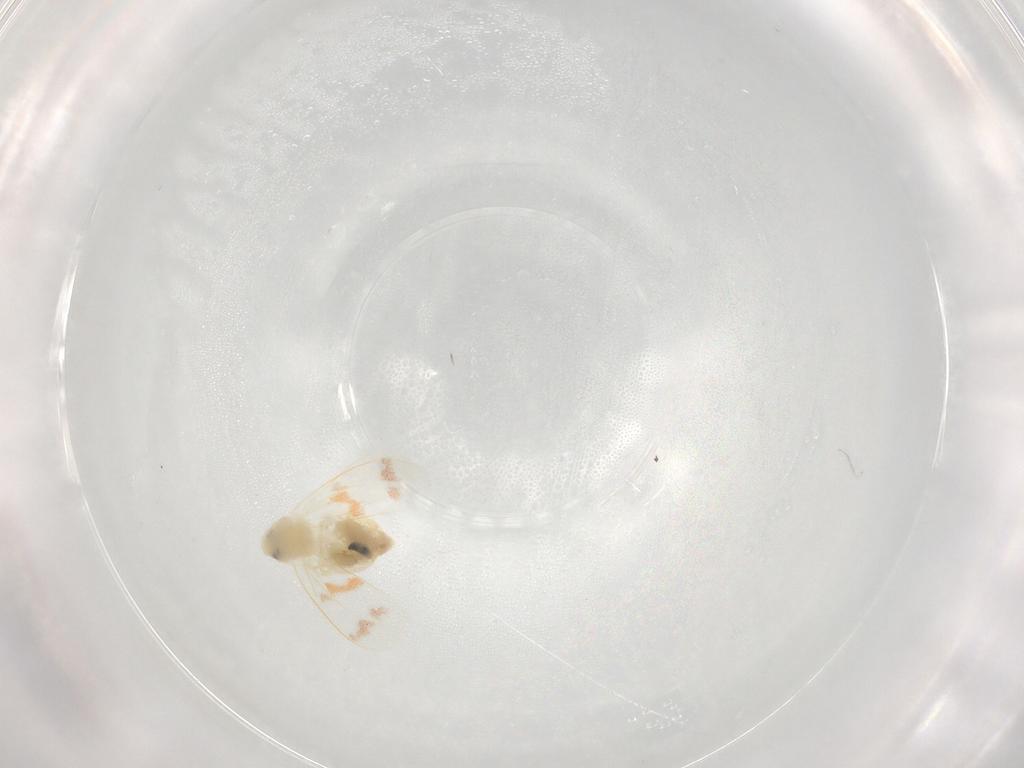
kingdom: Animalia
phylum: Arthropoda
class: Insecta
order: Hemiptera
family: Aleyrodidae
